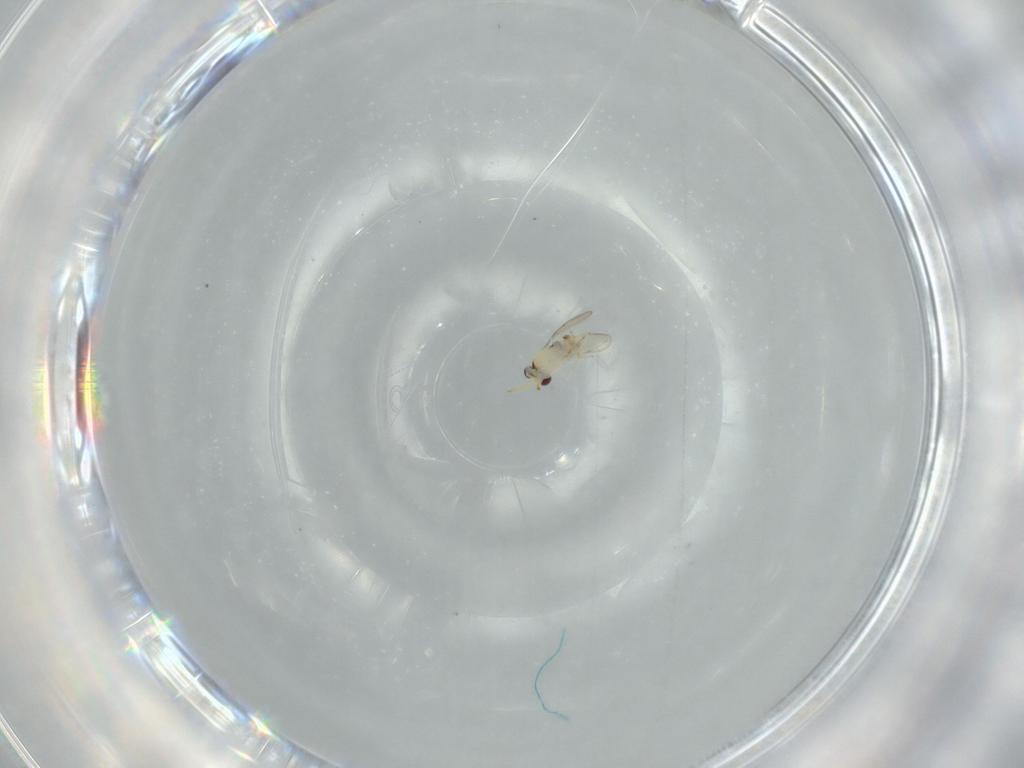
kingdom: Animalia
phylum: Arthropoda
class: Insecta
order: Hymenoptera
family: Aphelinidae
